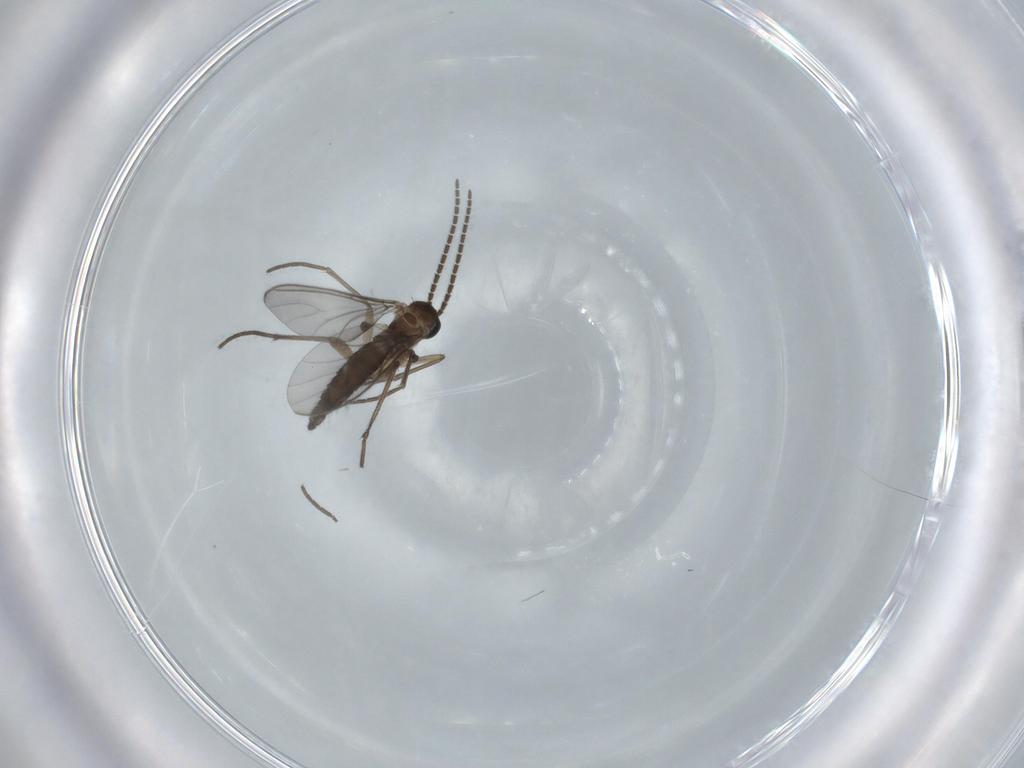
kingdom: Animalia
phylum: Arthropoda
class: Insecta
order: Diptera
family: Sciaridae
